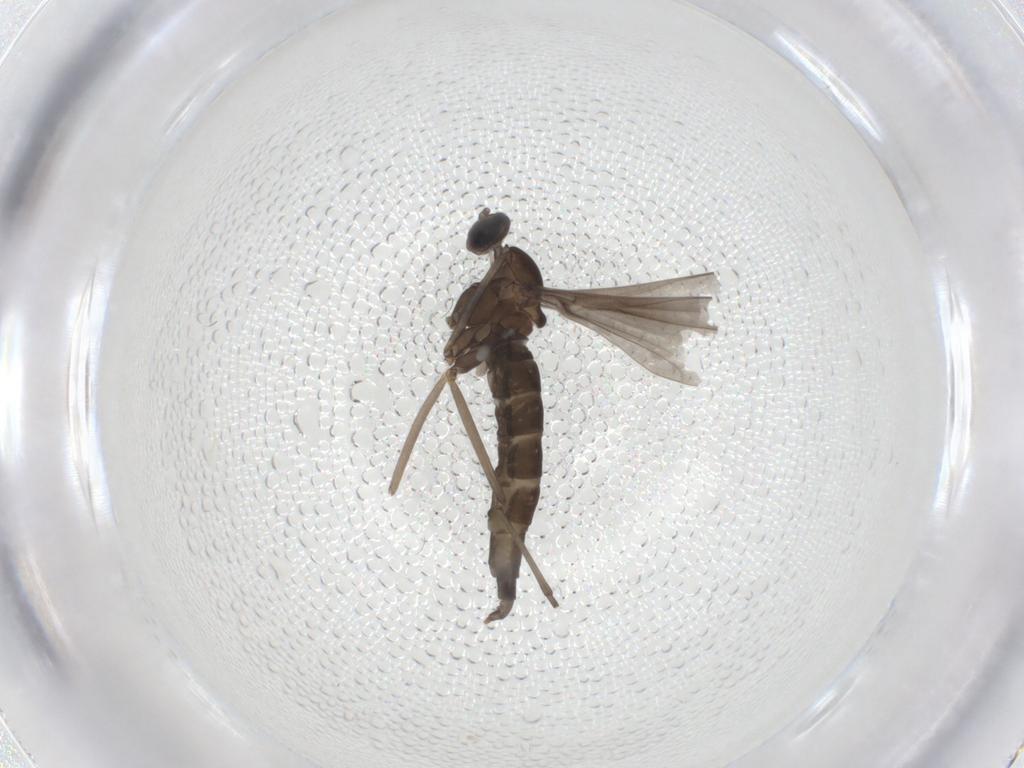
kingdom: Animalia
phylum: Arthropoda
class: Insecta
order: Diptera
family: Cecidomyiidae
